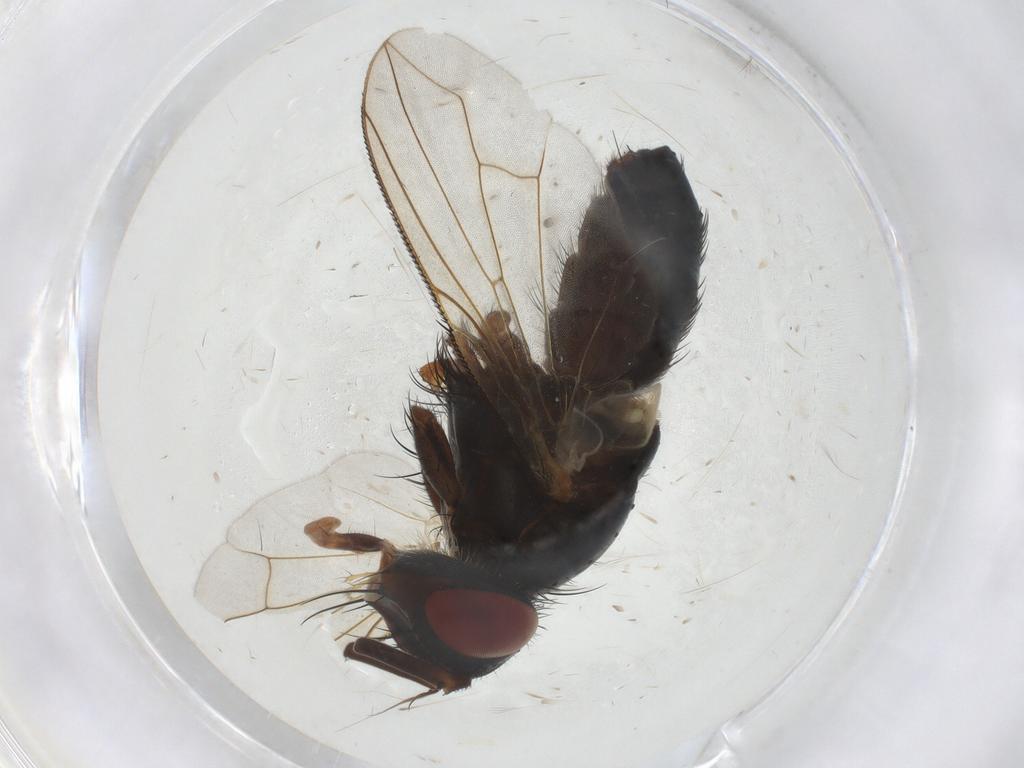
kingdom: Animalia
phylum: Arthropoda
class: Insecta
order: Diptera
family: Tachinidae
